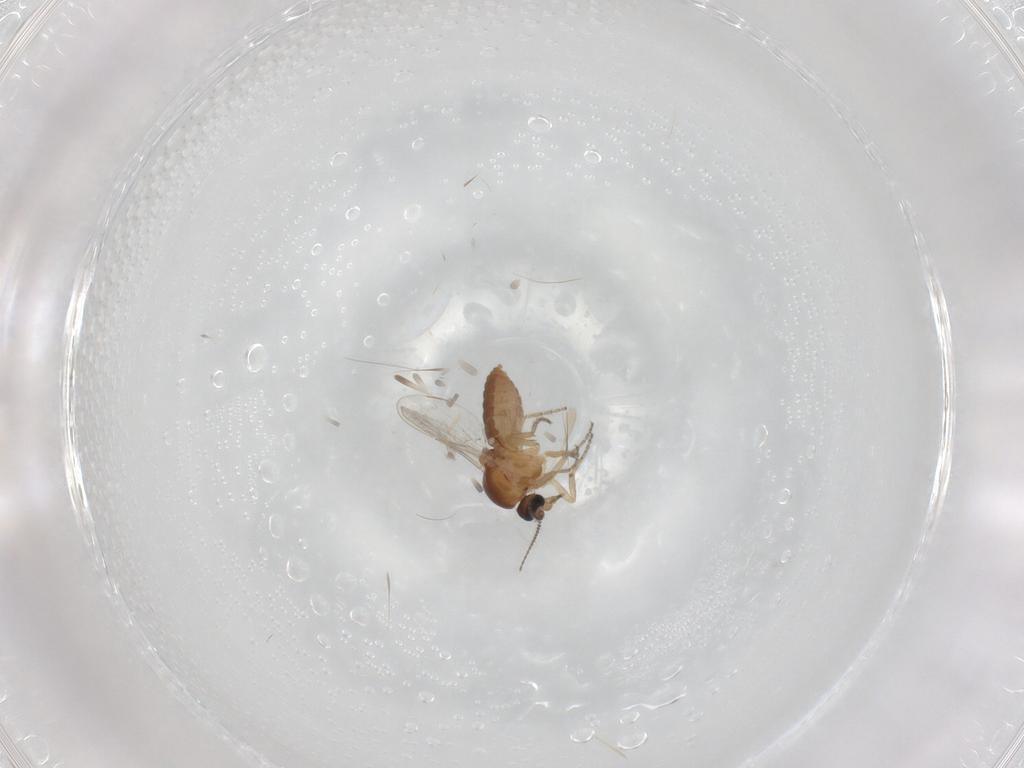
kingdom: Animalia
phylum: Arthropoda
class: Insecta
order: Diptera
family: Ceratopogonidae
